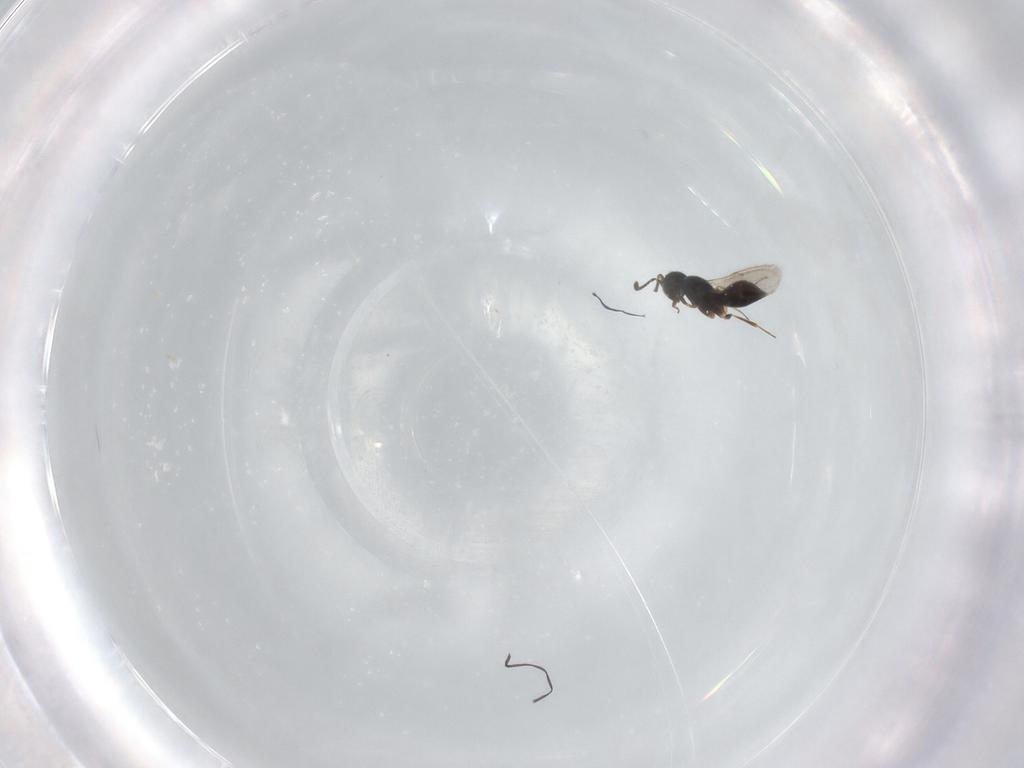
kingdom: Animalia
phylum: Arthropoda
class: Insecta
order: Hymenoptera
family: Scelionidae
